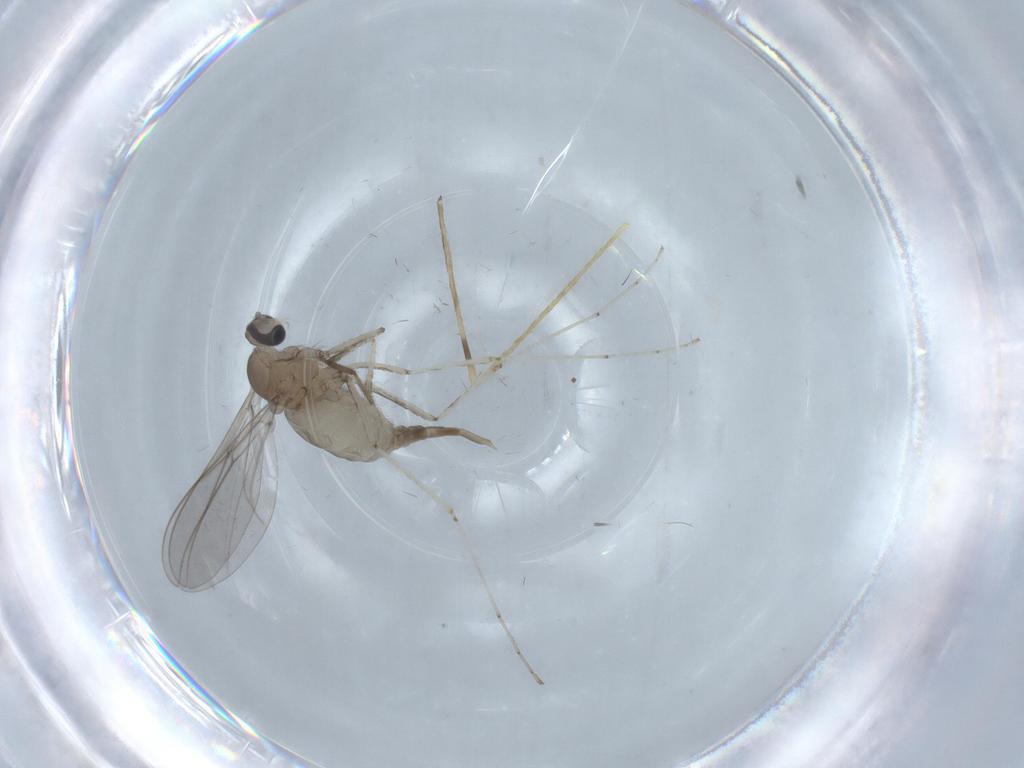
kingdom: Animalia
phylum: Arthropoda
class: Insecta
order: Diptera
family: Cecidomyiidae
